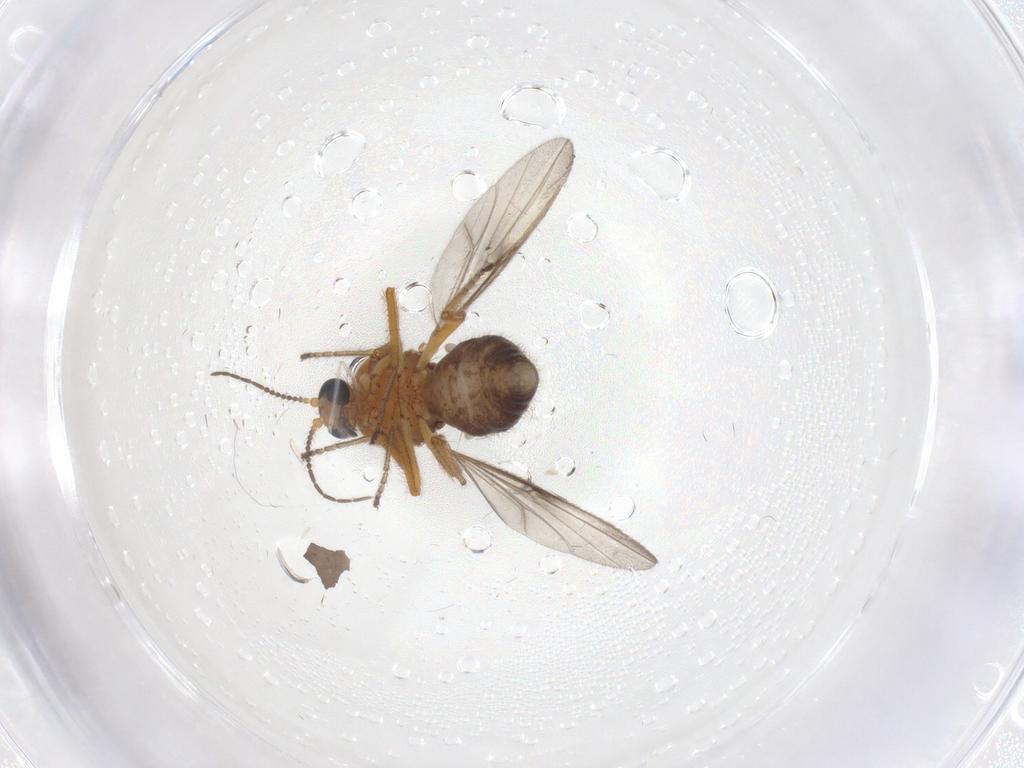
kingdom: Animalia
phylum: Arthropoda
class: Insecta
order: Diptera
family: Ceratopogonidae
